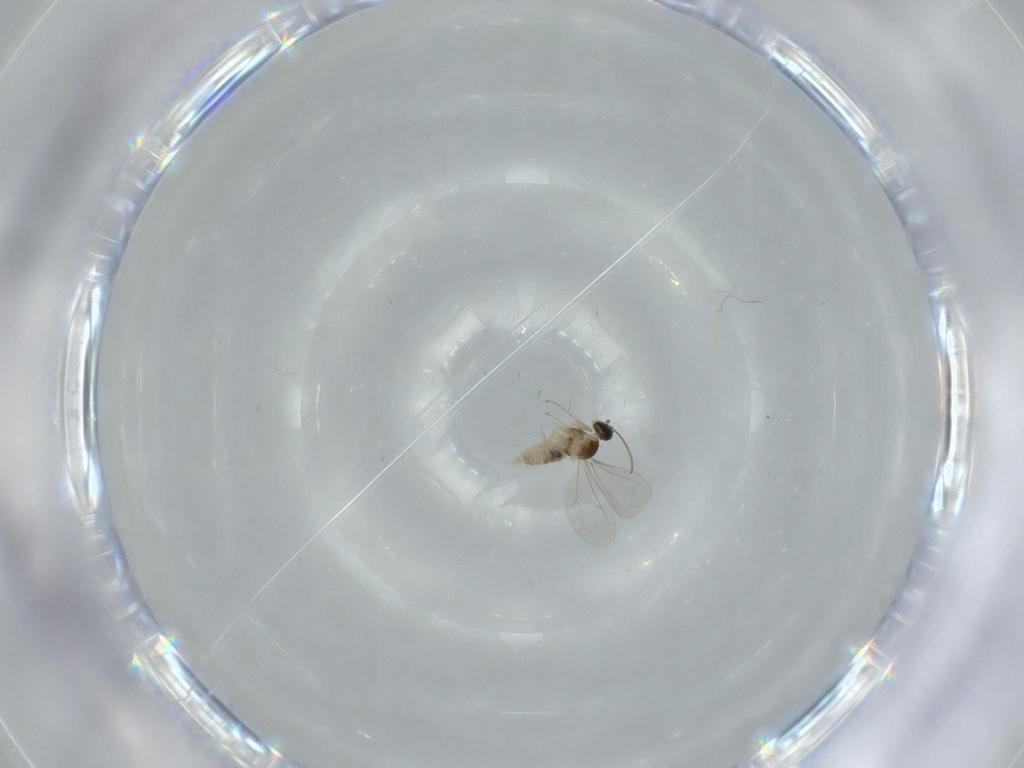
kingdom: Animalia
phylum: Arthropoda
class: Insecta
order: Diptera
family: Cecidomyiidae
